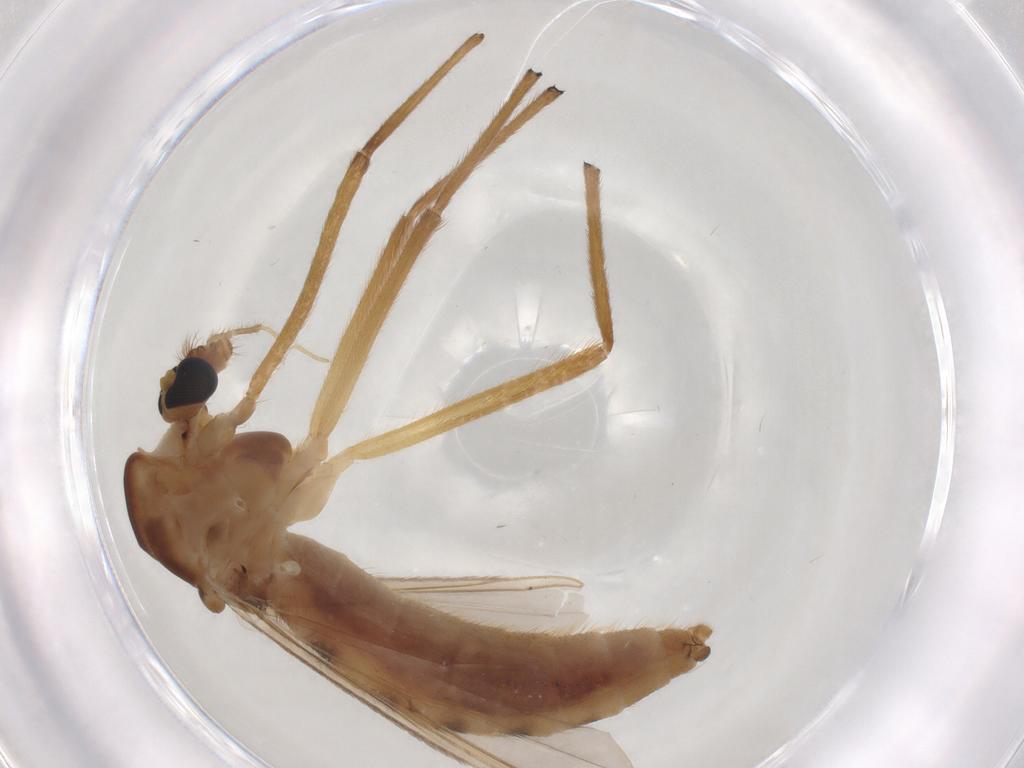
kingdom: Animalia
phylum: Arthropoda
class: Insecta
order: Diptera
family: Chironomidae
